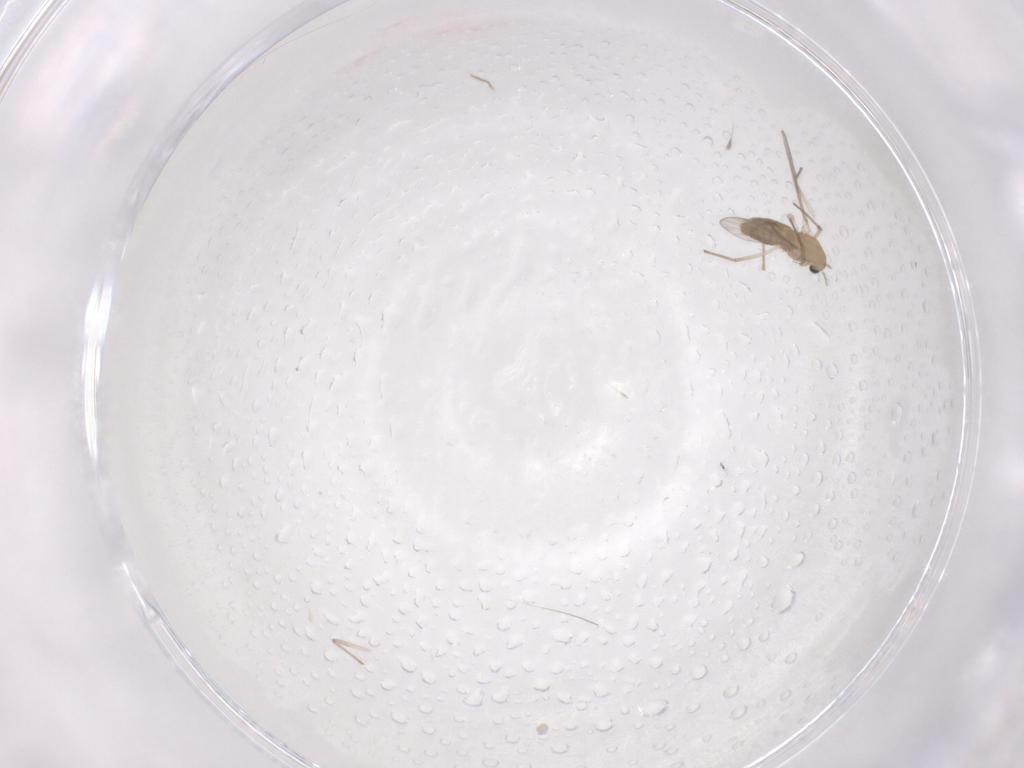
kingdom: Animalia
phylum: Arthropoda
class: Insecta
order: Diptera
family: Chironomidae
